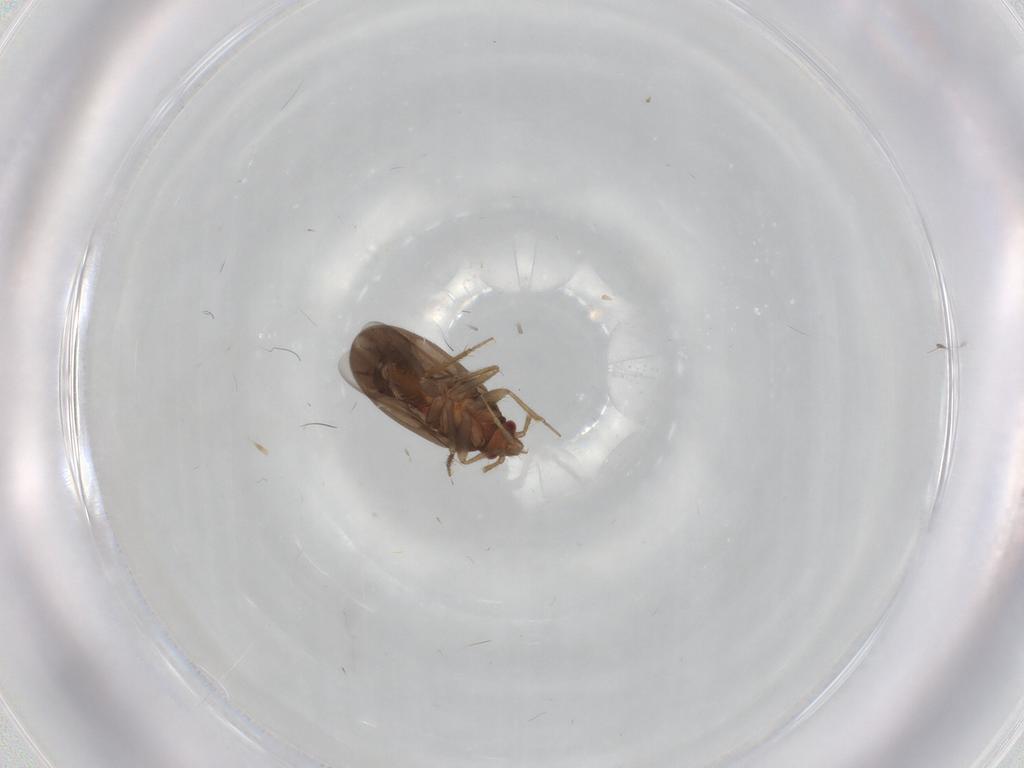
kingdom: Animalia
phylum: Arthropoda
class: Insecta
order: Hemiptera
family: Ceratocombidae
